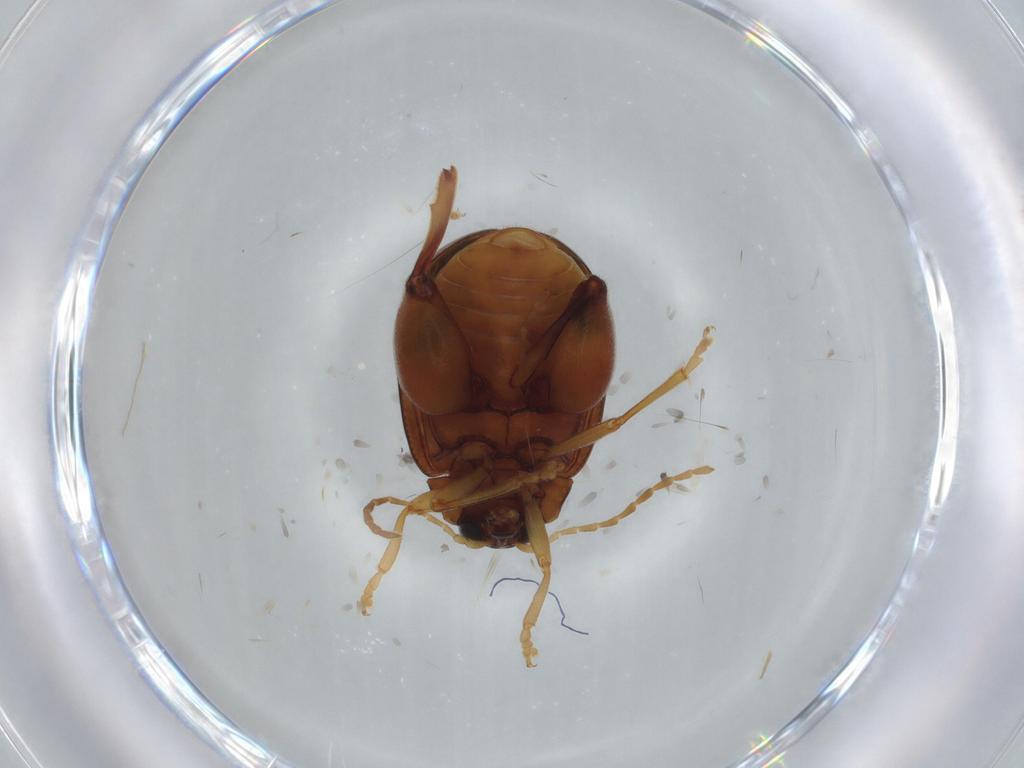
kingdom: Animalia
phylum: Arthropoda
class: Insecta
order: Coleoptera
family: Chrysomelidae
